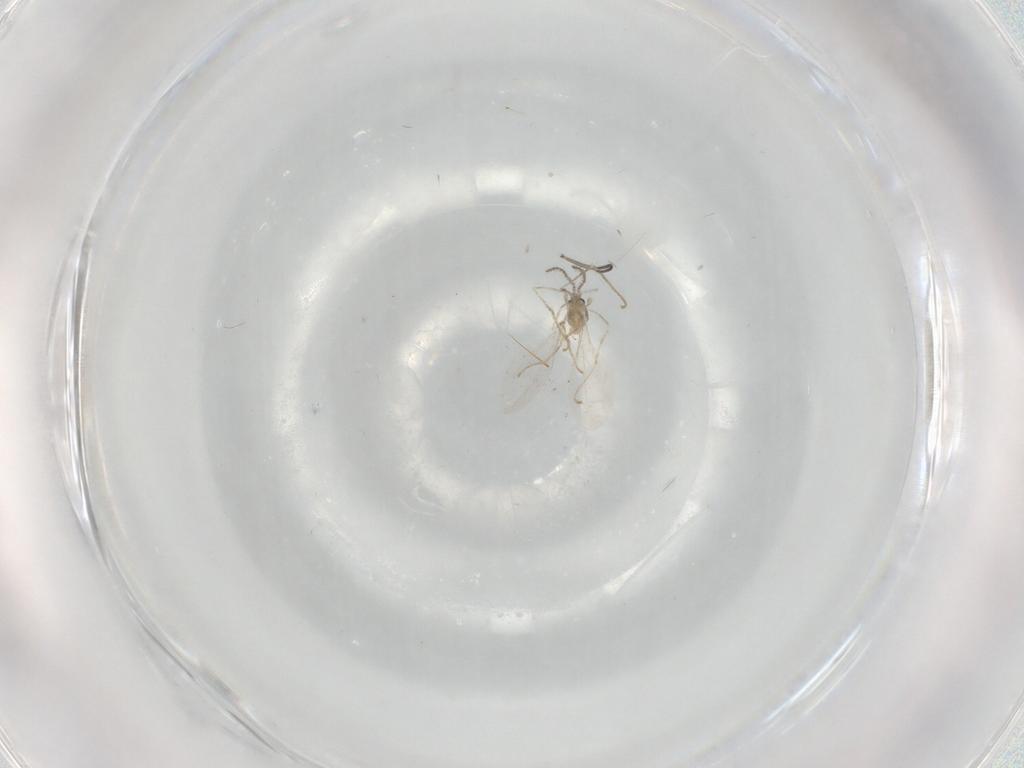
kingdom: Animalia
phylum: Arthropoda
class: Insecta
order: Diptera
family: Cecidomyiidae
